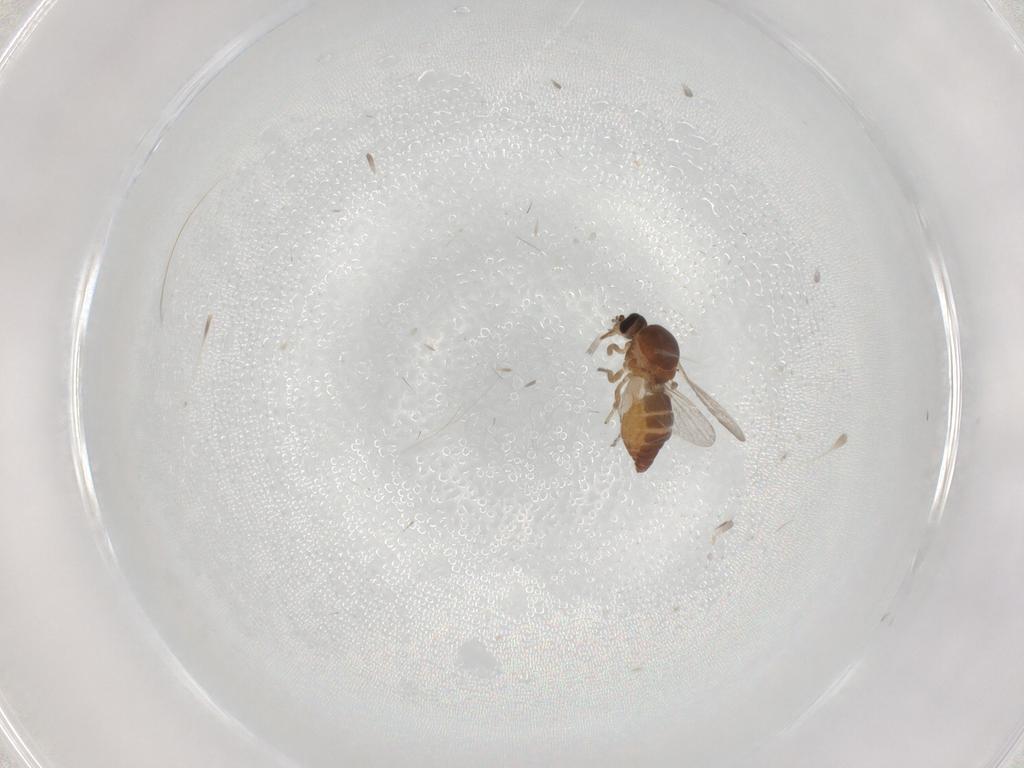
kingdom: Animalia
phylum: Arthropoda
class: Insecta
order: Diptera
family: Ceratopogonidae
